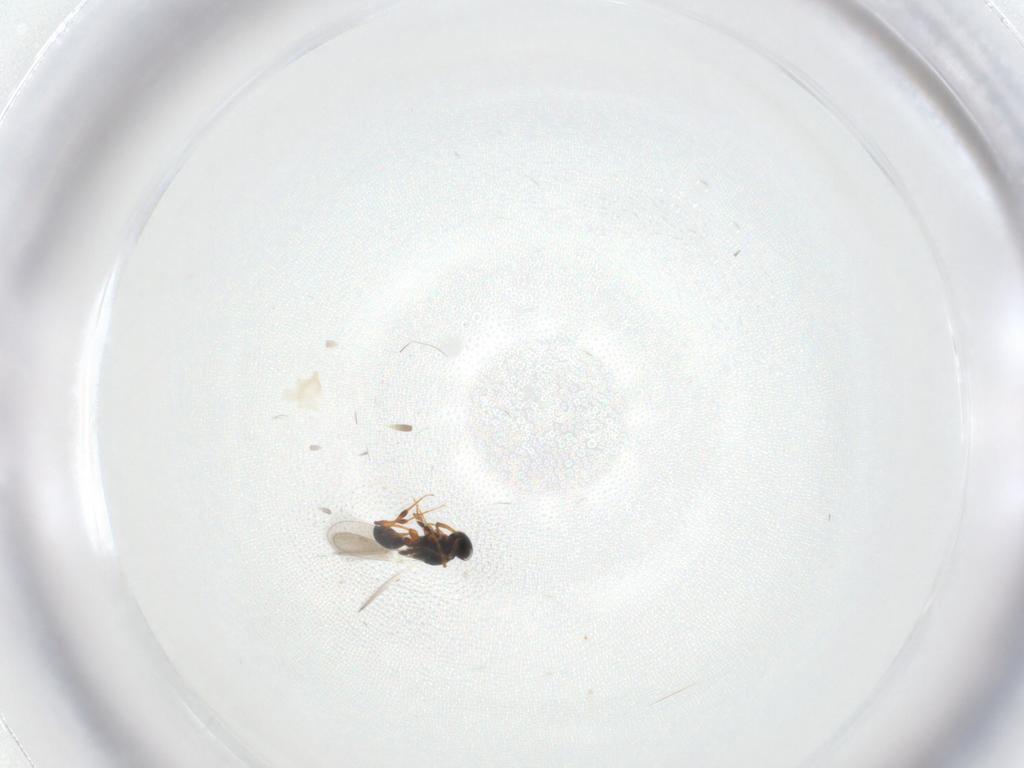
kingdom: Animalia
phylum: Arthropoda
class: Insecta
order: Hymenoptera
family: Platygastridae
